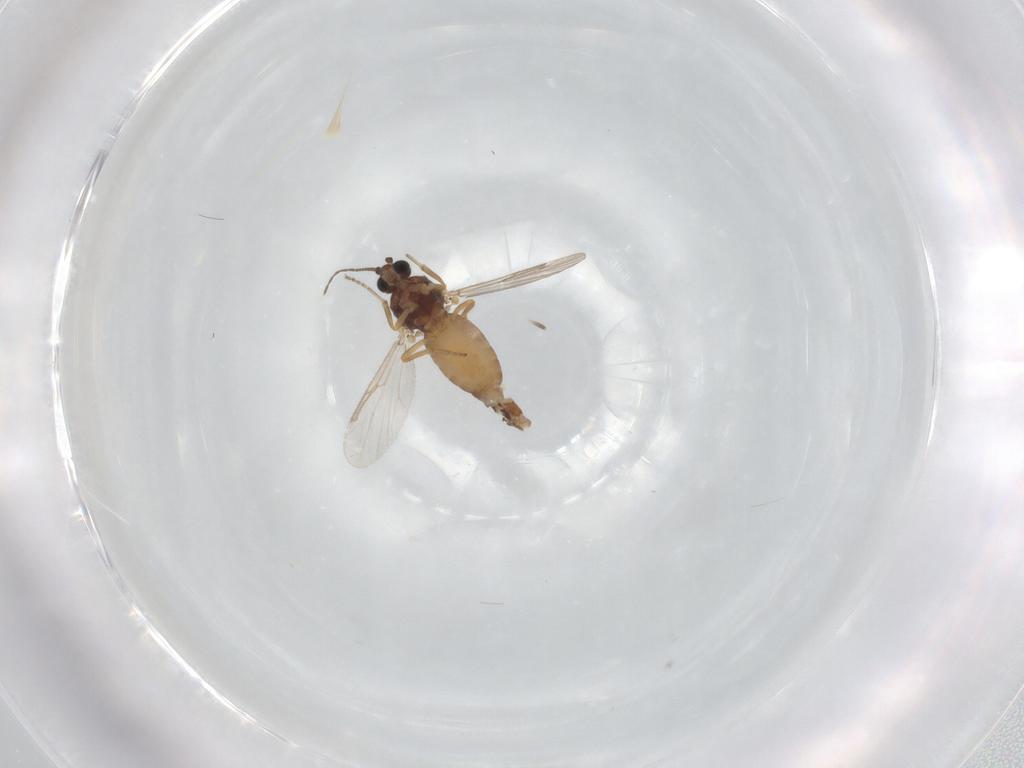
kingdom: Animalia
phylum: Arthropoda
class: Insecta
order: Diptera
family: Ceratopogonidae
